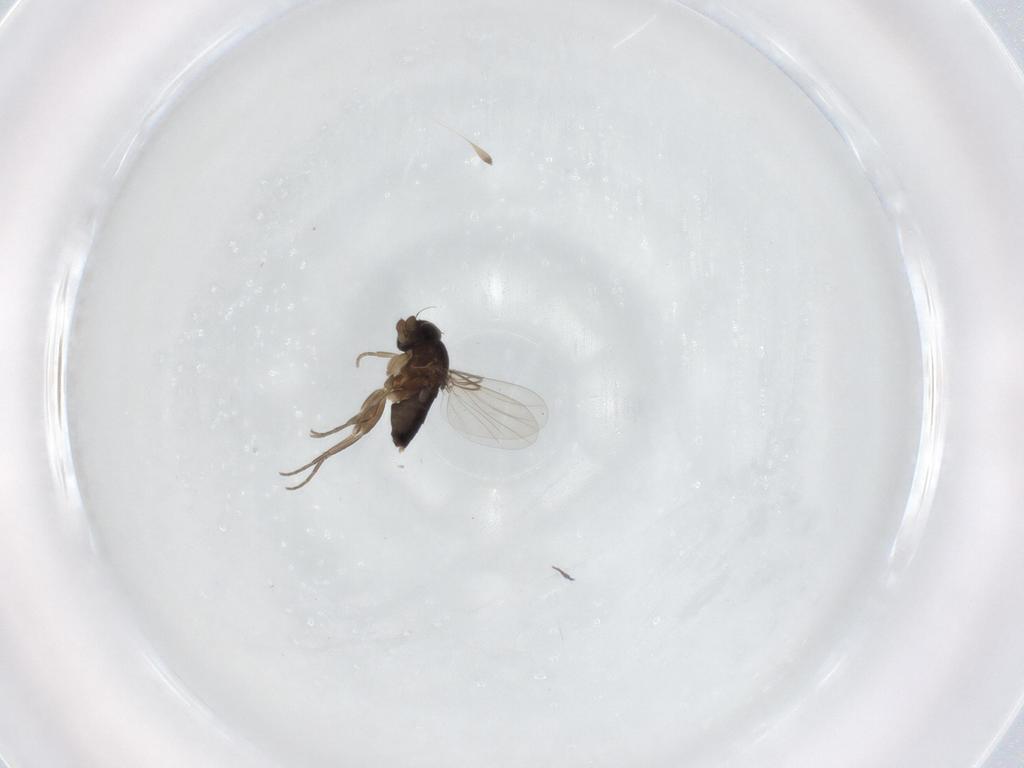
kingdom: Animalia
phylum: Arthropoda
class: Insecta
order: Diptera
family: Phoridae
